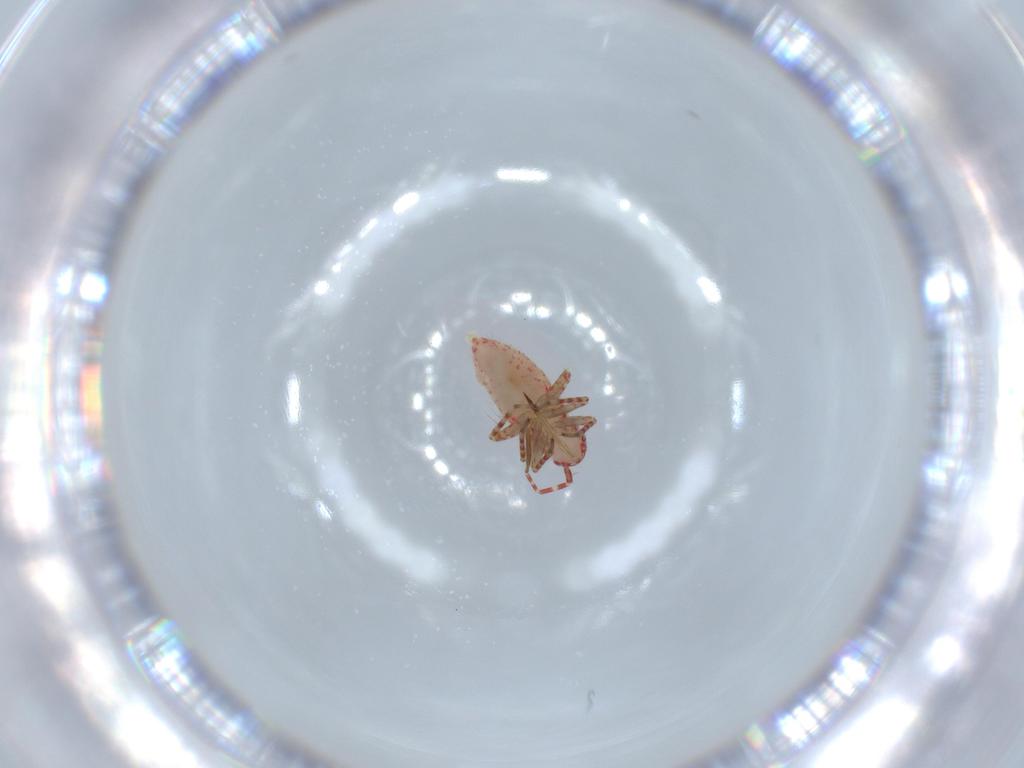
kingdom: Animalia
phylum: Arthropoda
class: Insecta
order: Hemiptera
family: Miridae
